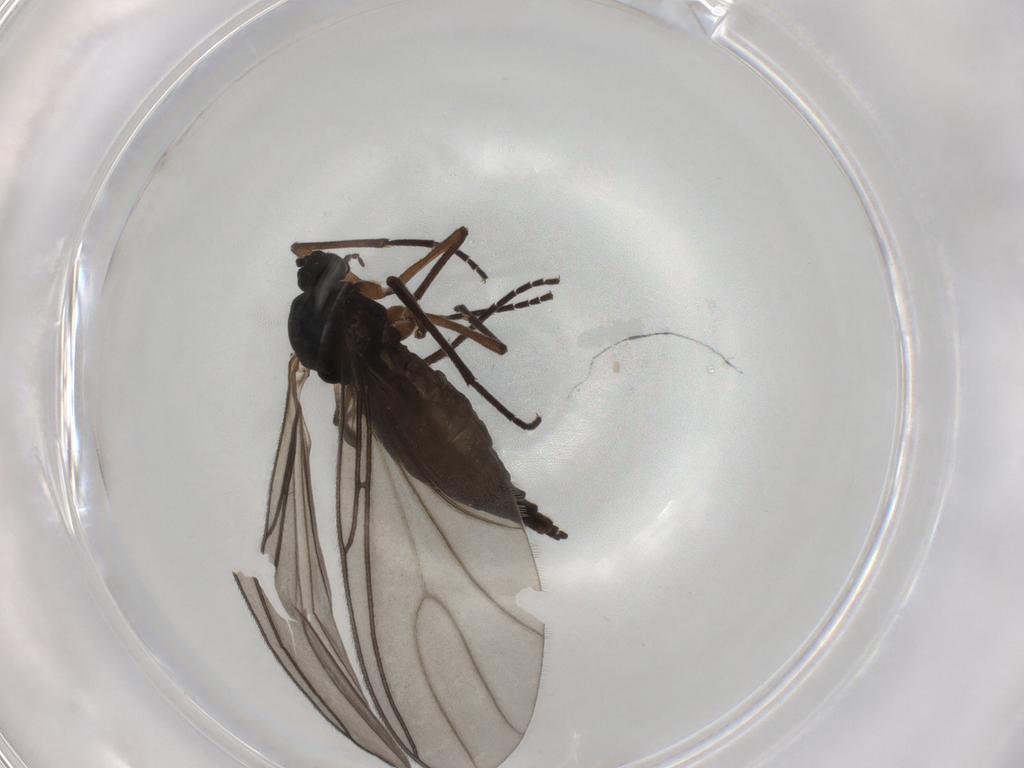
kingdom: Animalia
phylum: Arthropoda
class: Insecta
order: Diptera
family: Sciaridae
